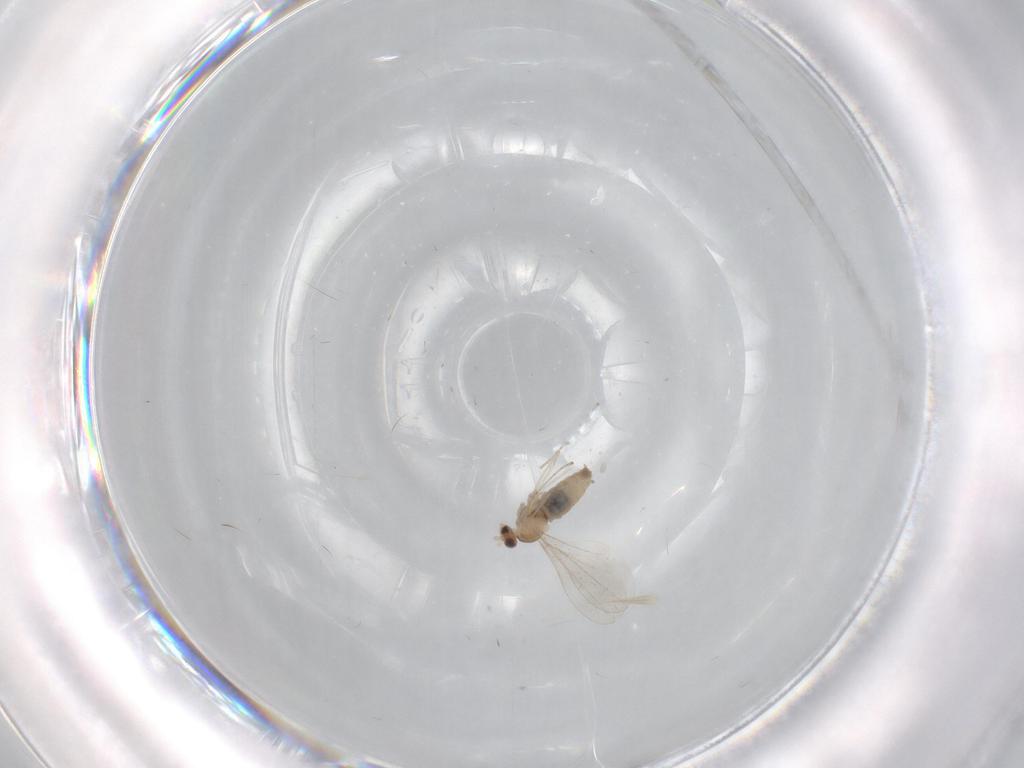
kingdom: Animalia
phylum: Arthropoda
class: Insecta
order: Diptera
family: Cecidomyiidae
